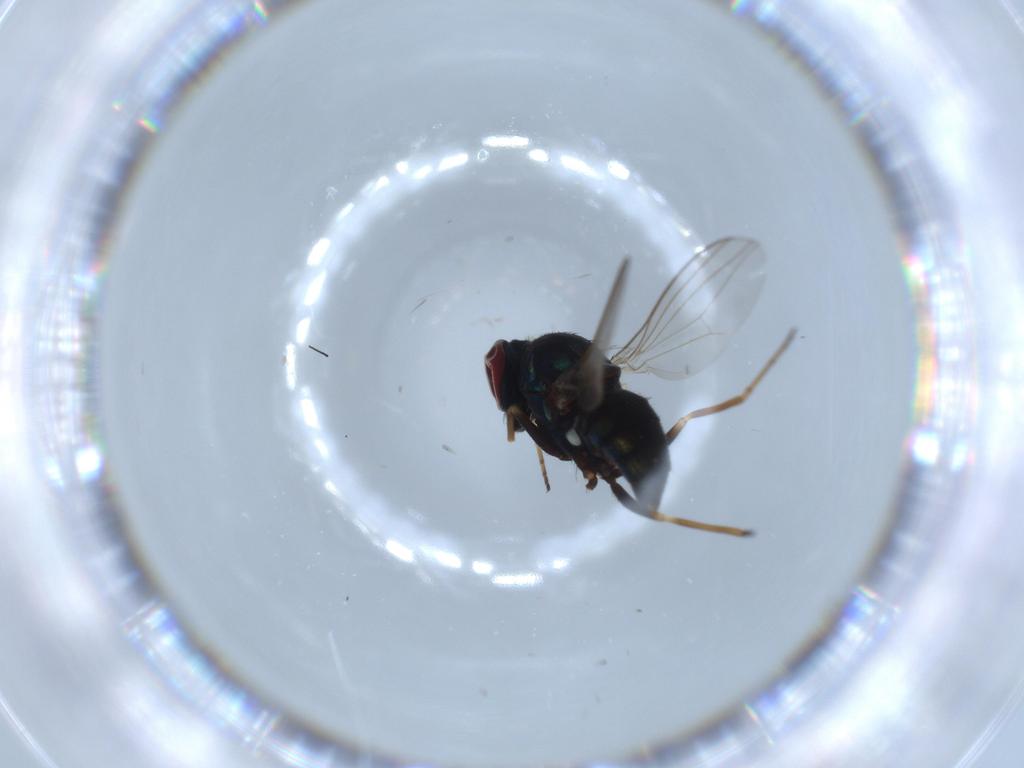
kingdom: Animalia
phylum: Arthropoda
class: Insecta
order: Diptera
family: Dolichopodidae
